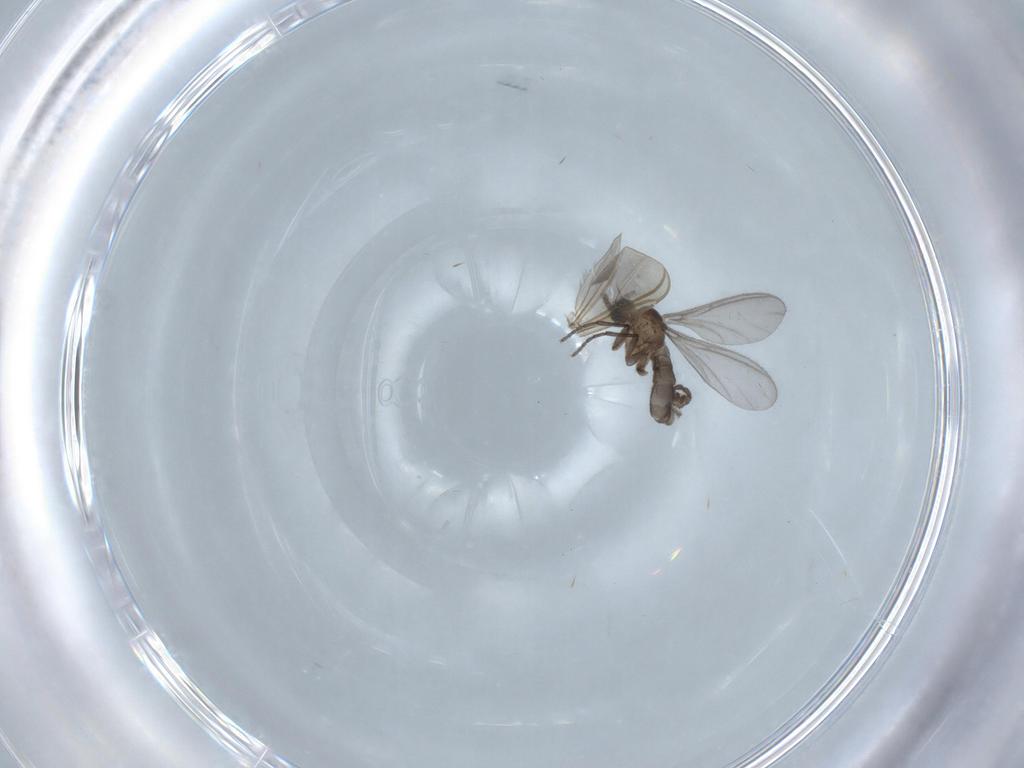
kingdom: Animalia
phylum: Arthropoda
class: Insecta
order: Diptera
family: Sciaridae
